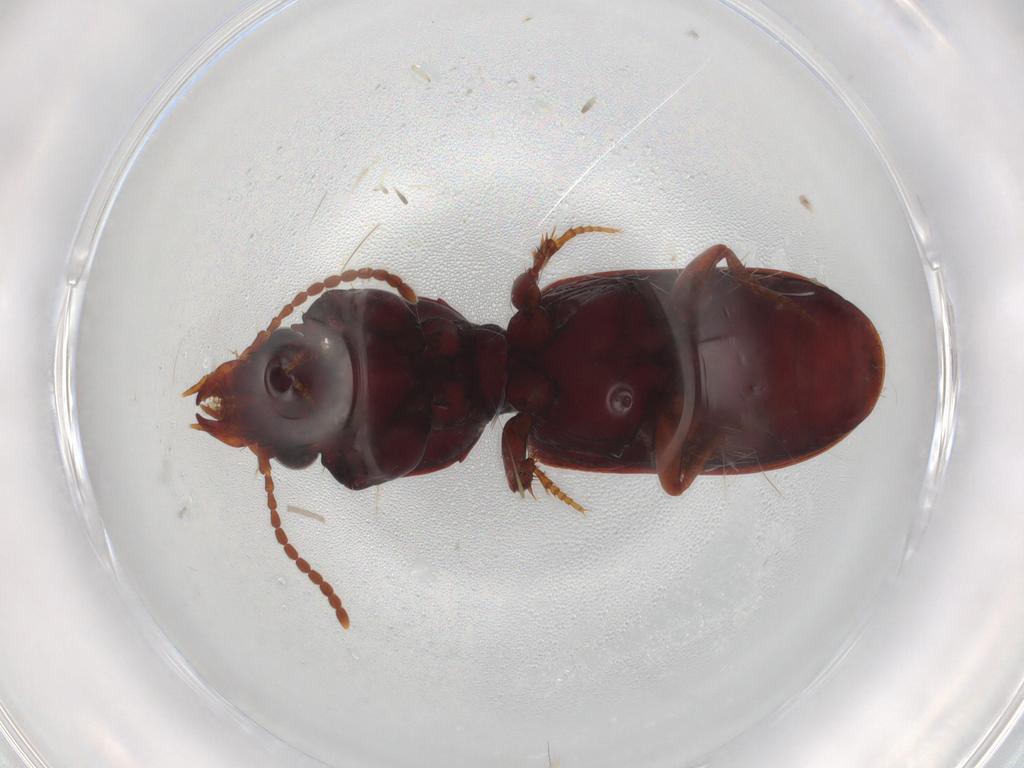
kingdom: Animalia
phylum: Arthropoda
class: Insecta
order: Coleoptera
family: Carabidae
